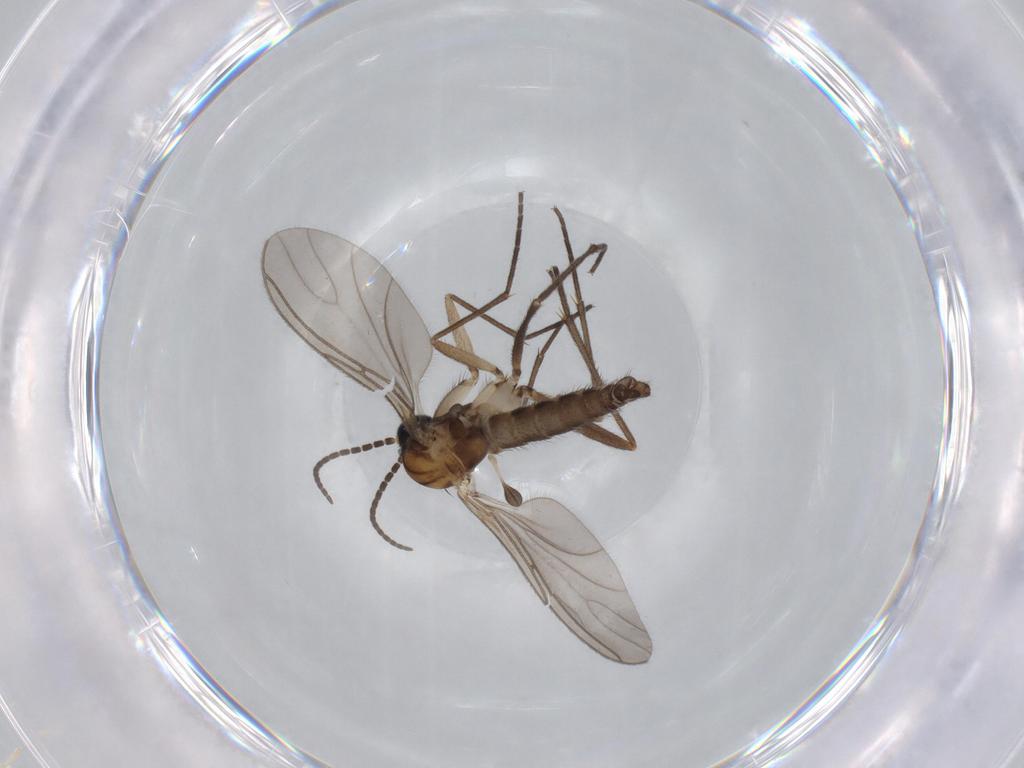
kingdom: Animalia
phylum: Arthropoda
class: Insecta
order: Diptera
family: Sciaridae
